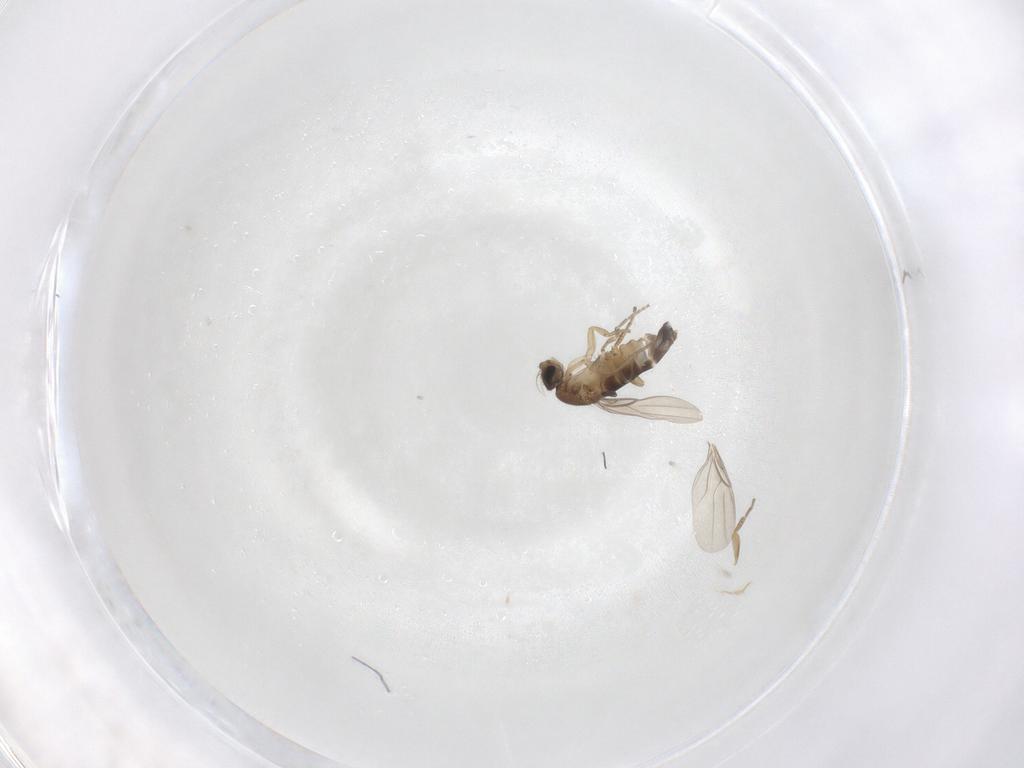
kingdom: Animalia
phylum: Arthropoda
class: Insecta
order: Diptera
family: Phoridae
